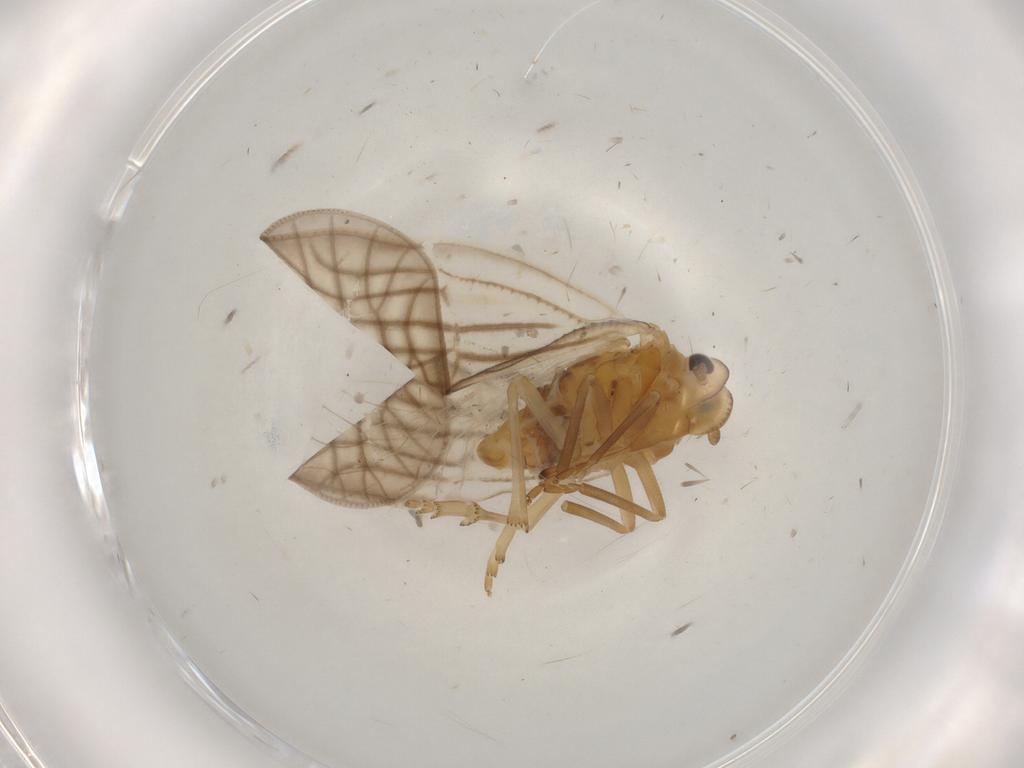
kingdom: Animalia
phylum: Arthropoda
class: Insecta
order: Hemiptera
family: Meenoplidae
